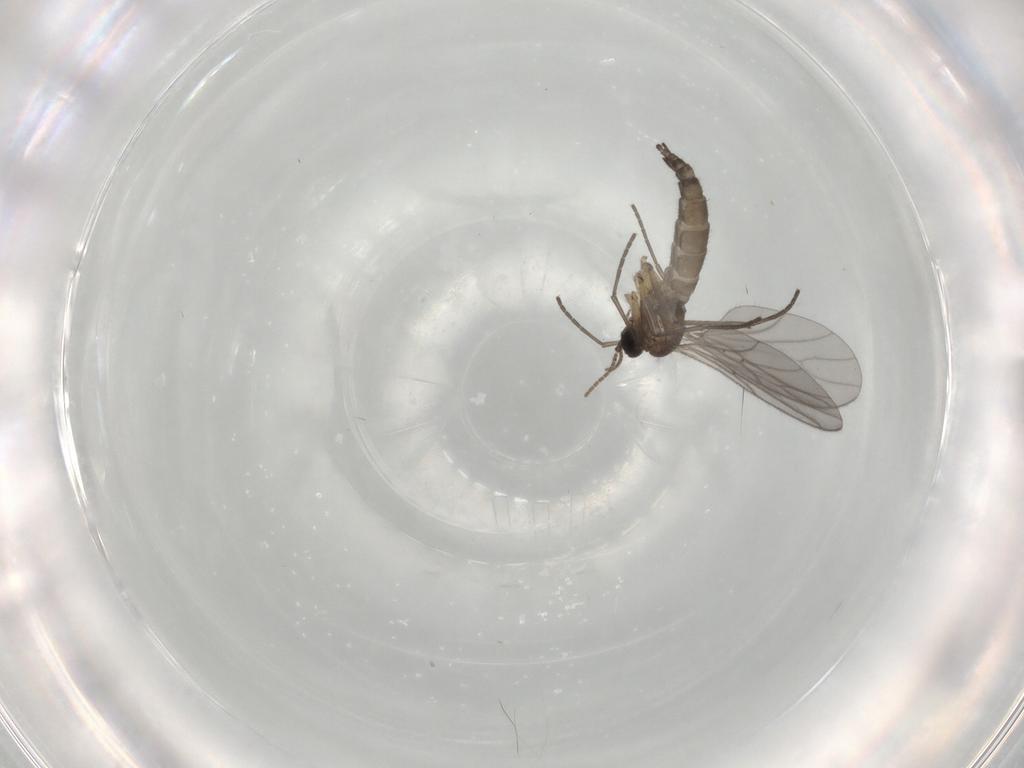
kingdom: Animalia
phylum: Arthropoda
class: Insecta
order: Diptera
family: Sciaridae
